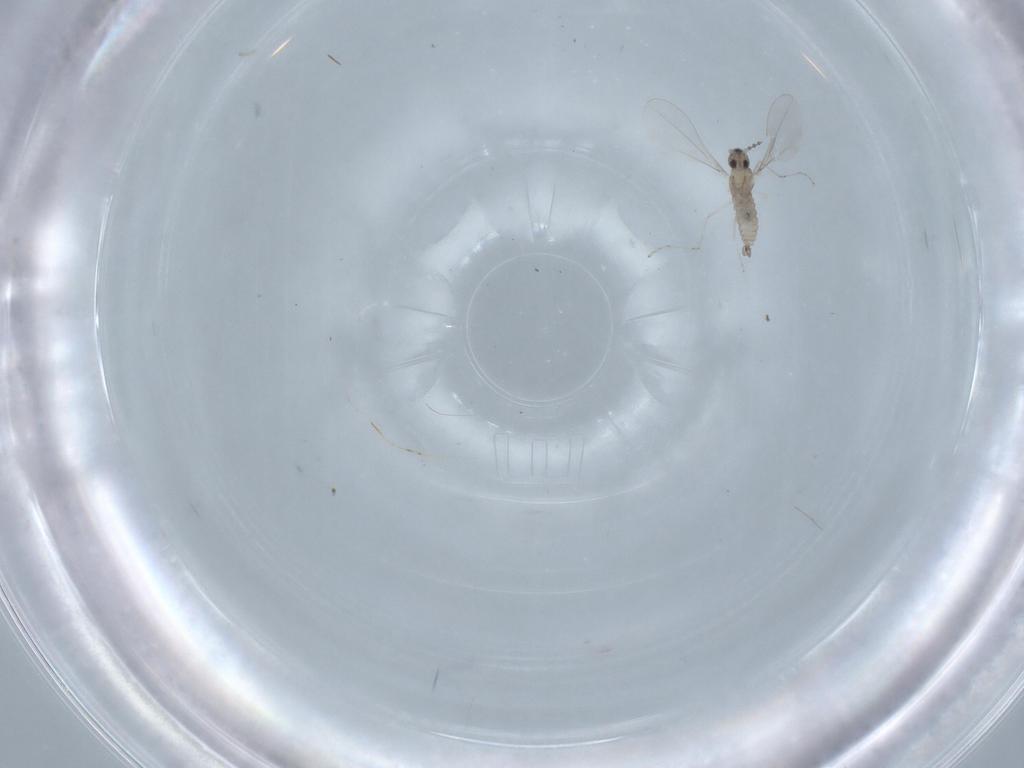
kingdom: Animalia
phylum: Arthropoda
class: Insecta
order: Diptera
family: Cecidomyiidae
